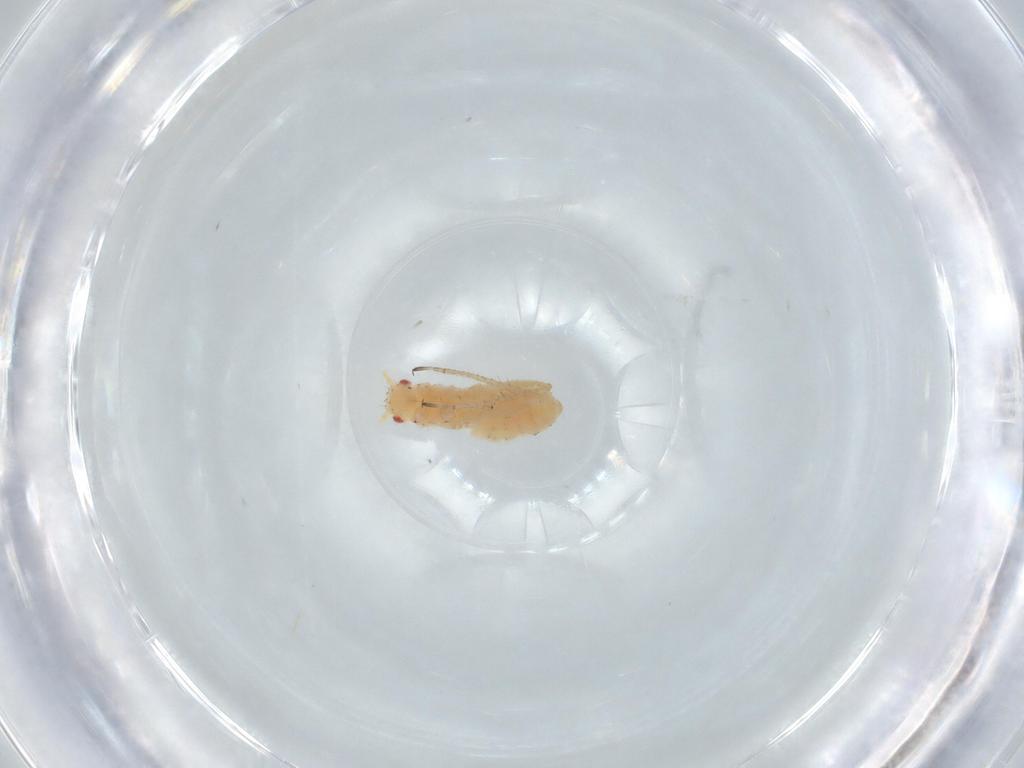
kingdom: Animalia
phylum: Arthropoda
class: Insecta
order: Hemiptera
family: Aphididae
